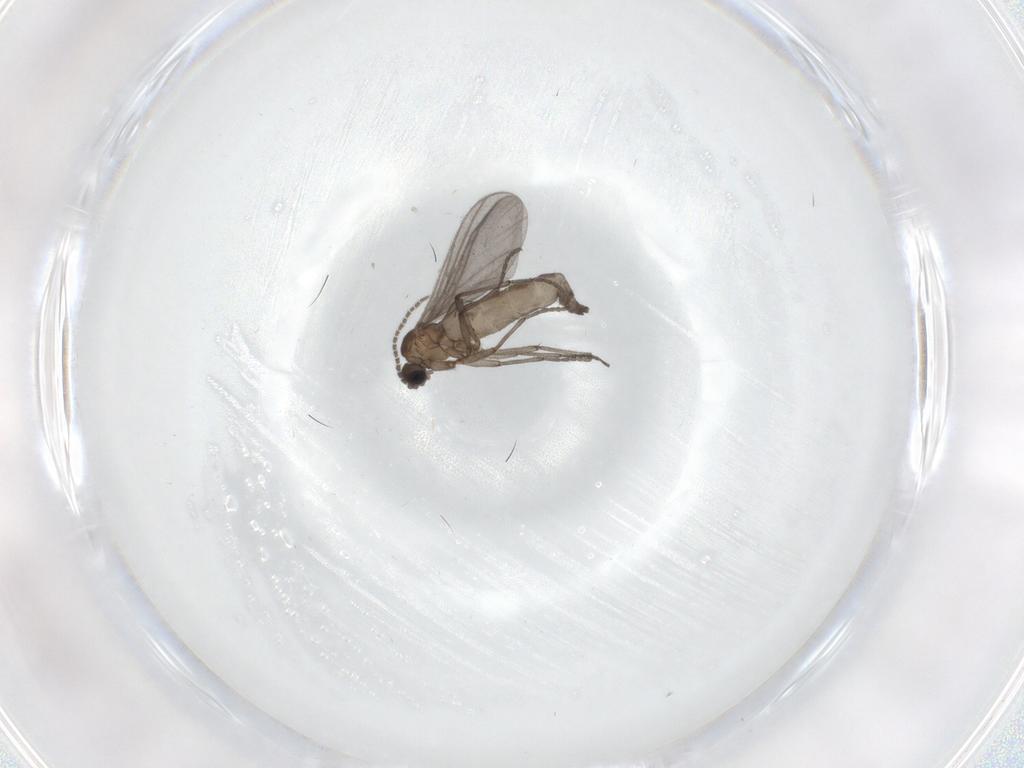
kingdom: Animalia
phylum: Arthropoda
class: Insecta
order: Diptera
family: Sciaridae
